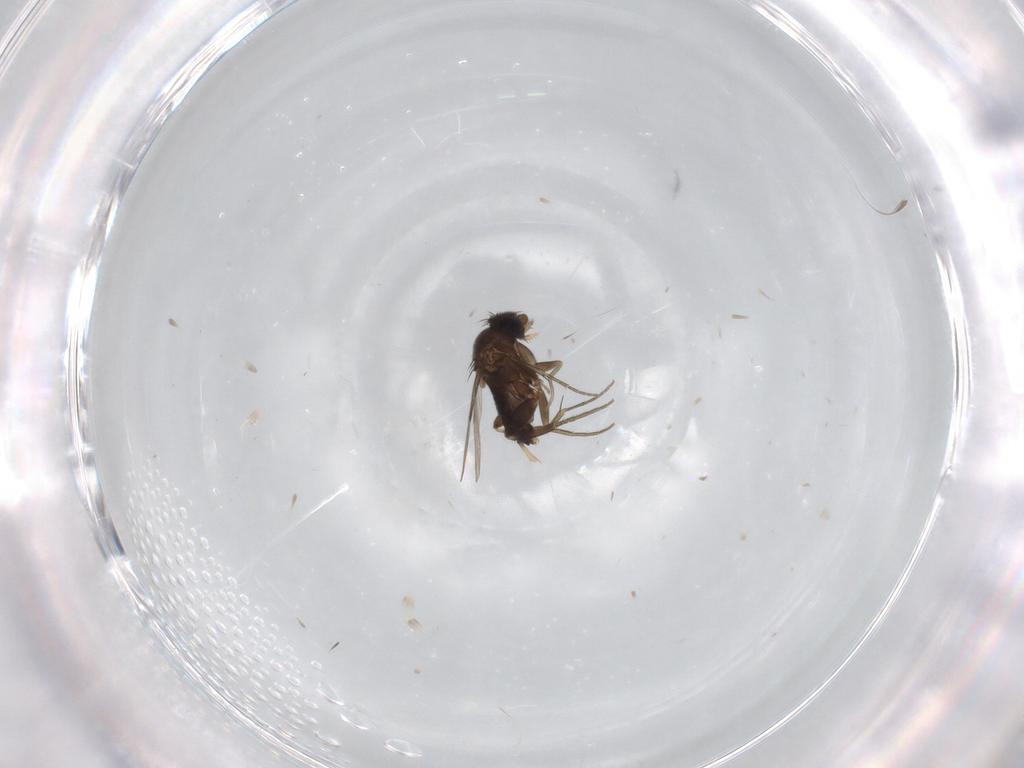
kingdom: Animalia
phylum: Arthropoda
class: Insecta
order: Diptera
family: Phoridae
